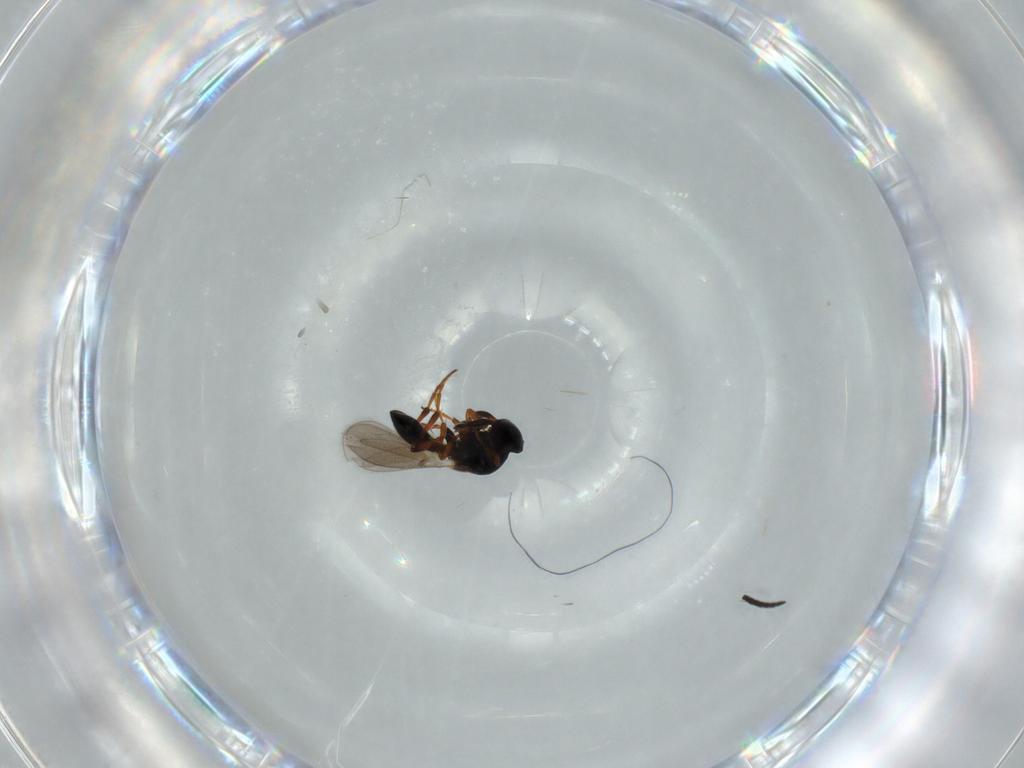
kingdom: Animalia
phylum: Arthropoda
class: Insecta
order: Hymenoptera
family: Platygastridae
